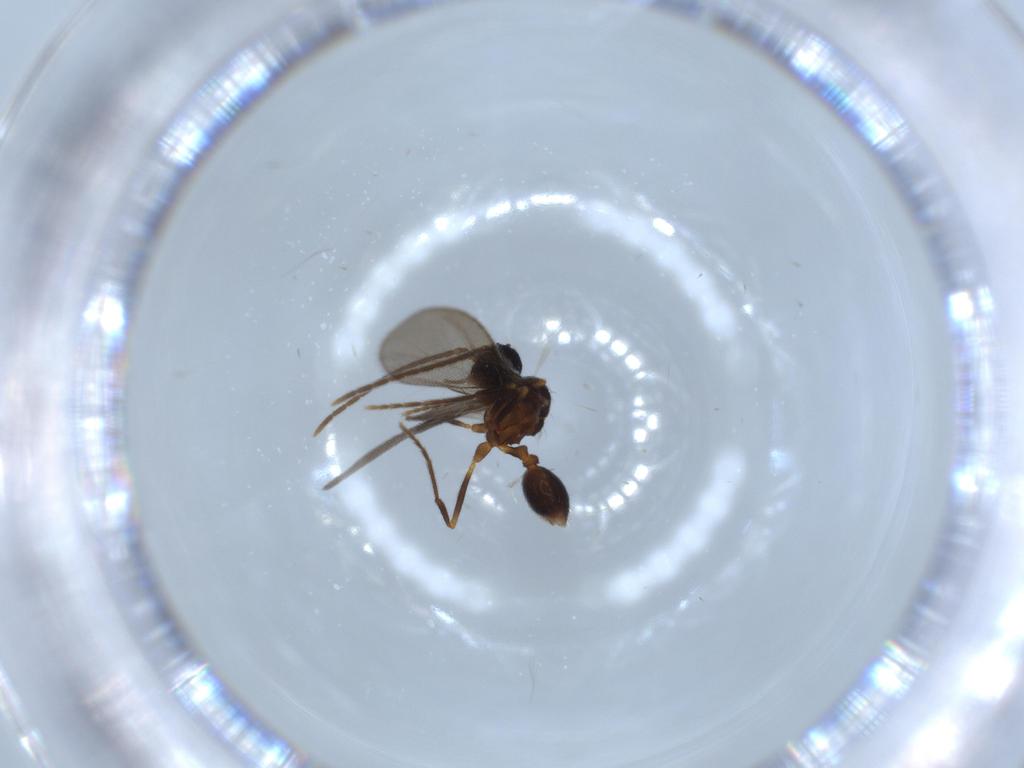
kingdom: Animalia
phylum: Arthropoda
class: Insecta
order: Hymenoptera
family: Formicidae
